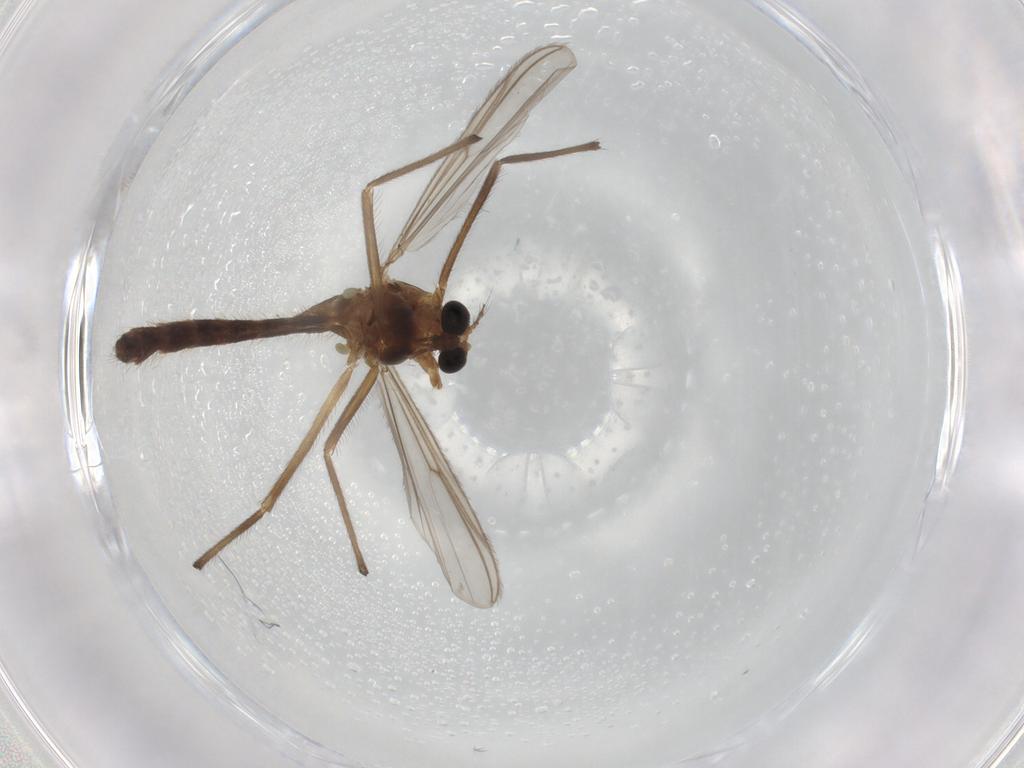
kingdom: Animalia
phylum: Arthropoda
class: Insecta
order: Diptera
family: Chironomidae
